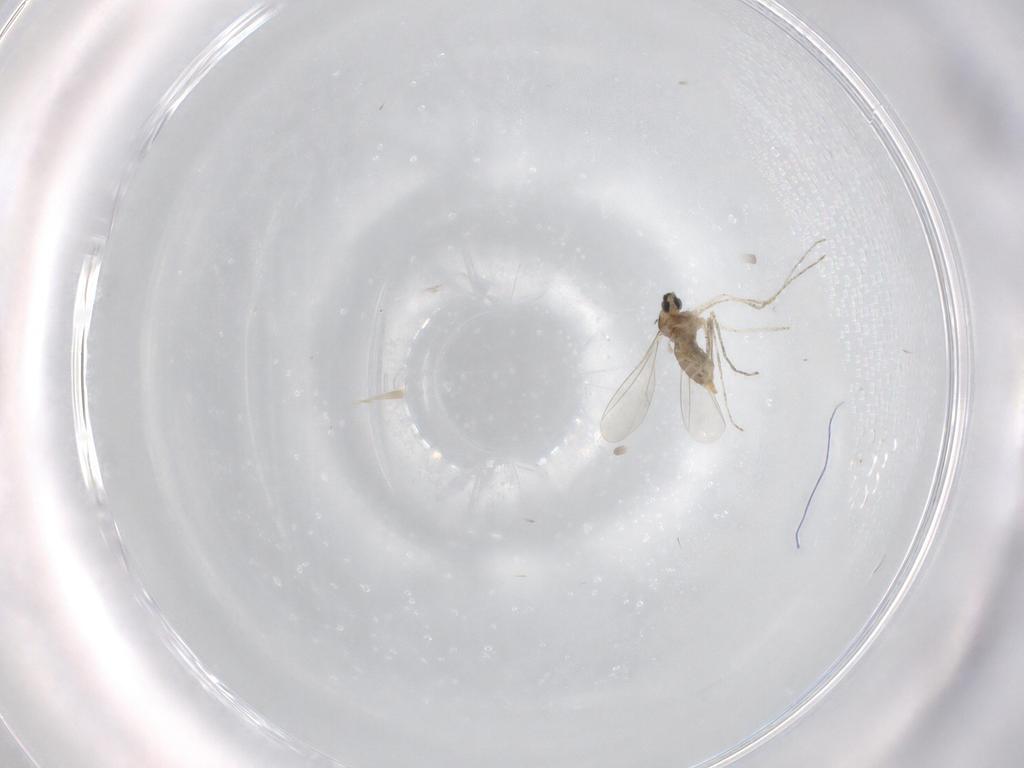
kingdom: Animalia
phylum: Arthropoda
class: Insecta
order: Diptera
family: Cecidomyiidae
